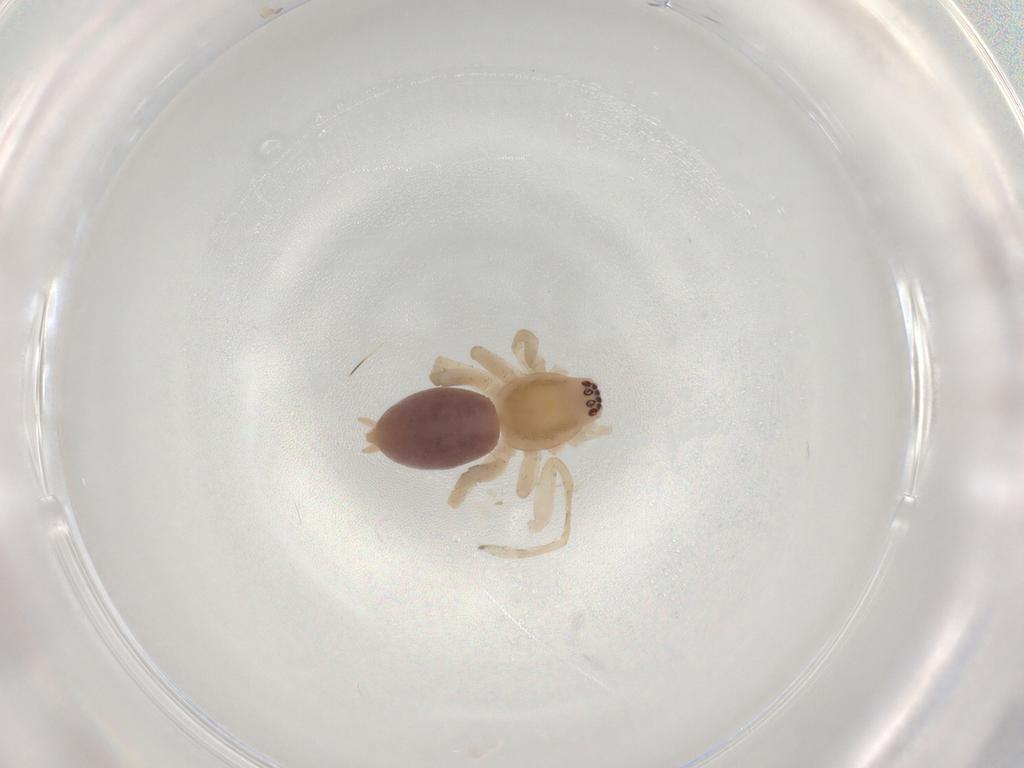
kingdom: Animalia
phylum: Arthropoda
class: Arachnida
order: Araneae
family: Anyphaenidae
